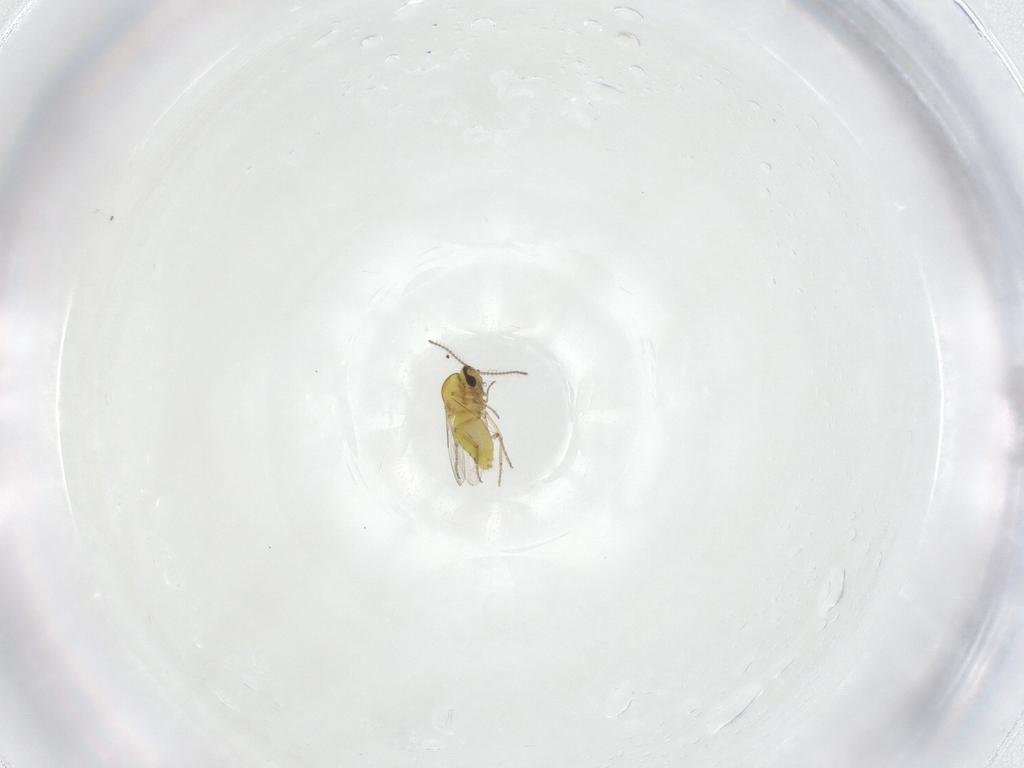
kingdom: Animalia
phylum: Arthropoda
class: Insecta
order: Diptera
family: Ceratopogonidae
